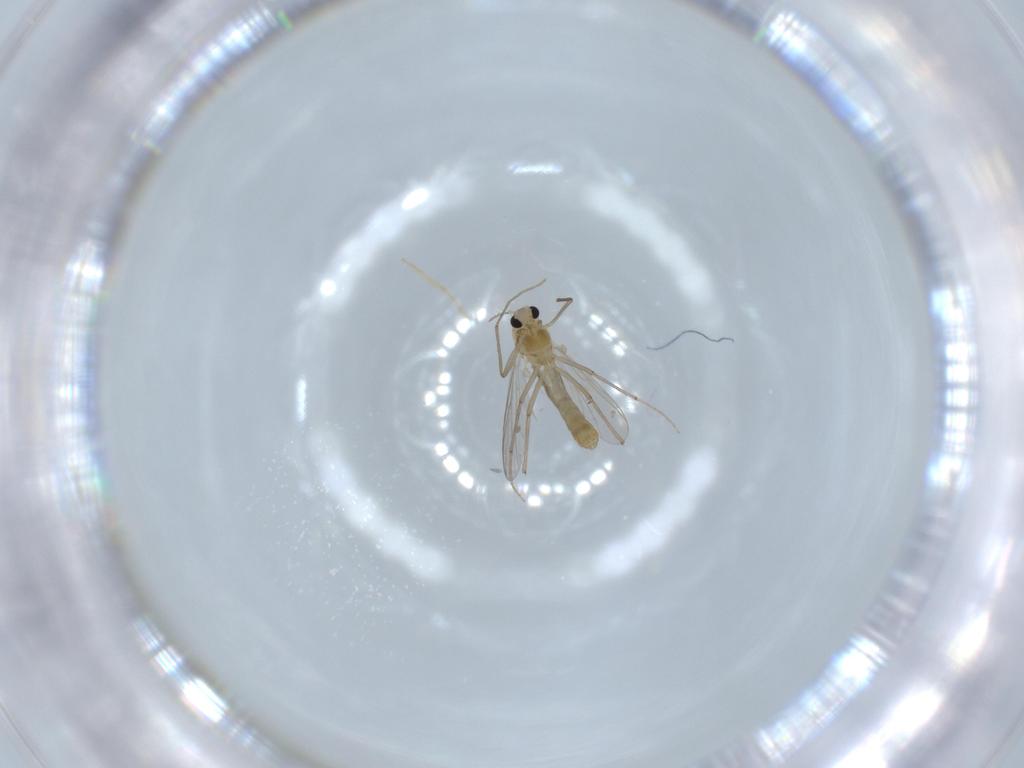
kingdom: Animalia
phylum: Arthropoda
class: Insecta
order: Diptera
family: Chironomidae
